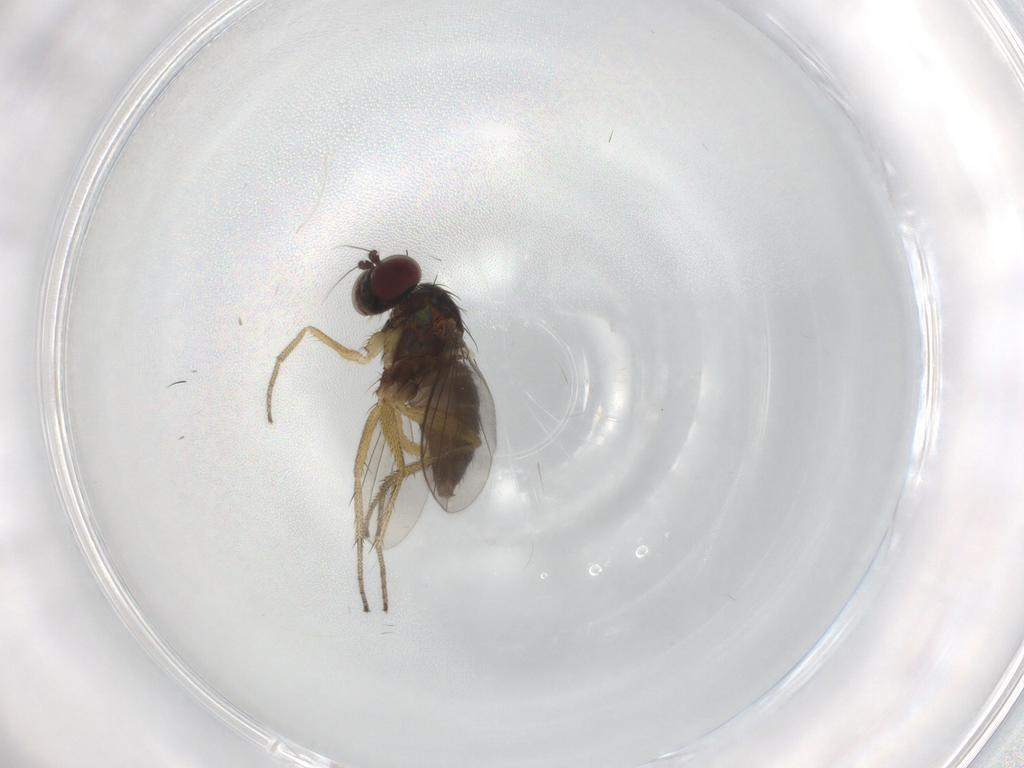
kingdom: Animalia
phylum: Arthropoda
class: Insecta
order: Diptera
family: Dolichopodidae
